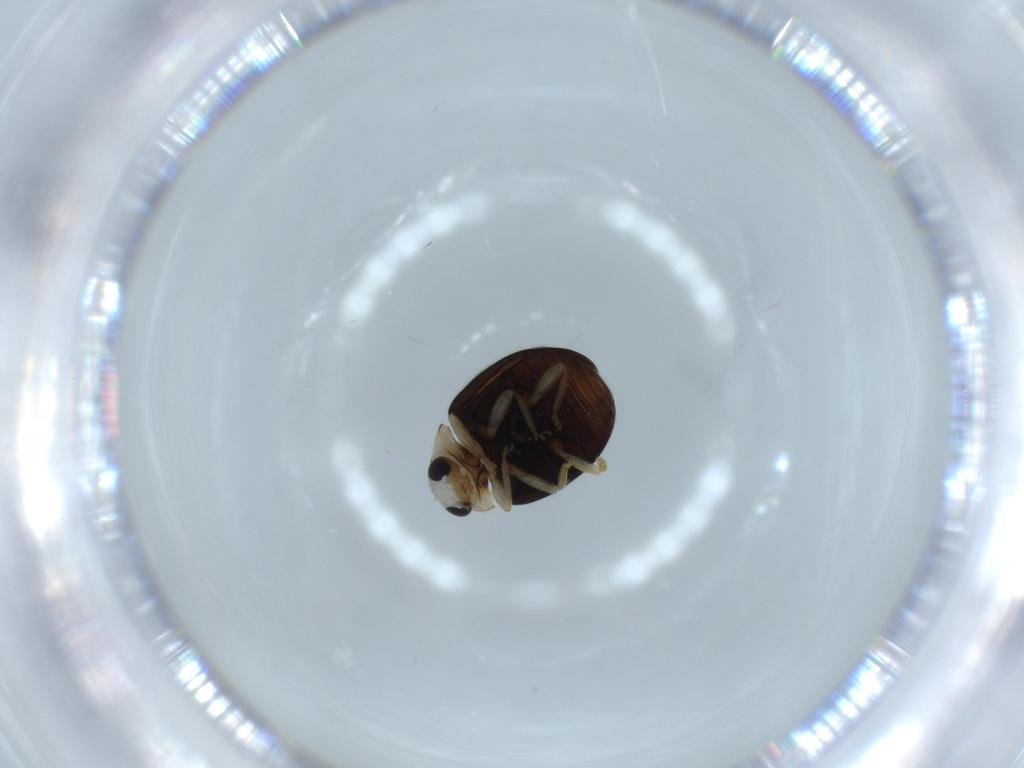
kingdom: Animalia
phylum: Arthropoda
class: Insecta
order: Coleoptera
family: Coccinellidae
